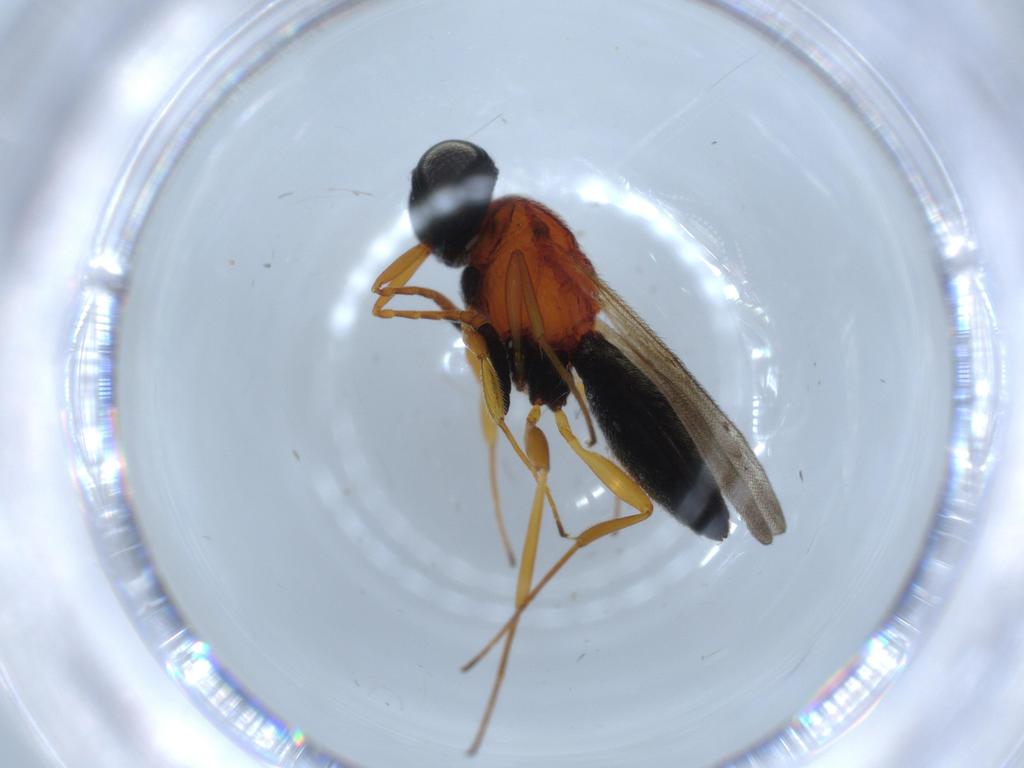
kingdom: Animalia
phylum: Arthropoda
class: Insecta
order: Hymenoptera
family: Scelionidae
